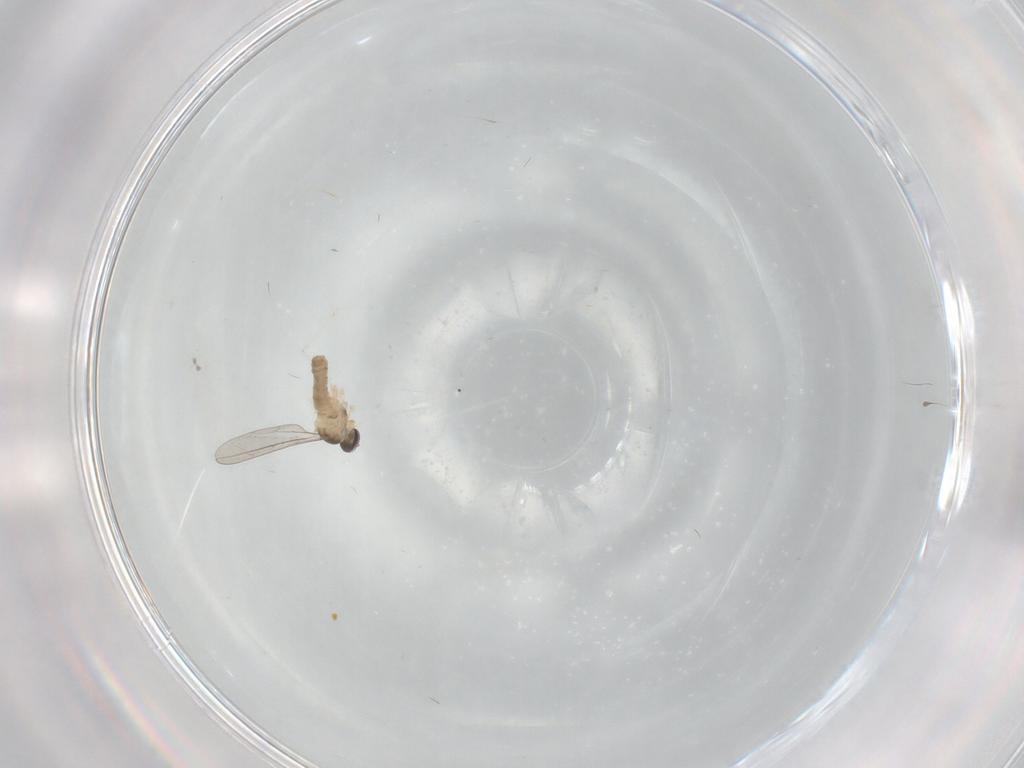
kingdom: Animalia
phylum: Arthropoda
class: Insecta
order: Diptera
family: Cecidomyiidae
